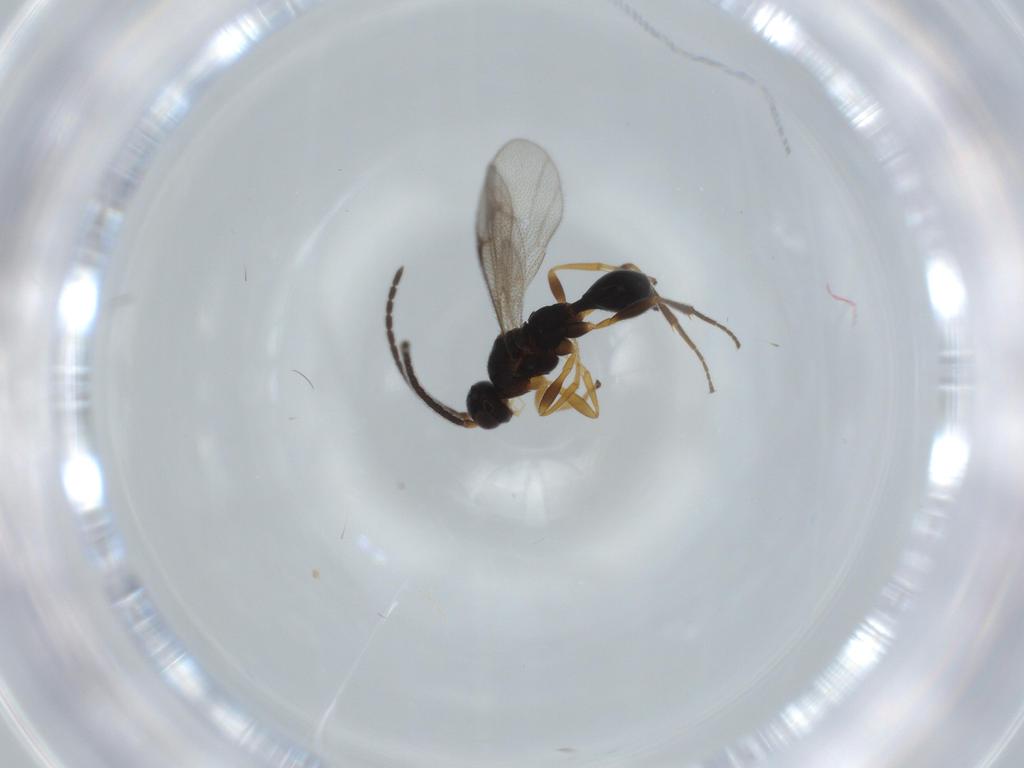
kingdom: Animalia
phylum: Arthropoda
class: Insecta
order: Hymenoptera
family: Proctotrupidae
